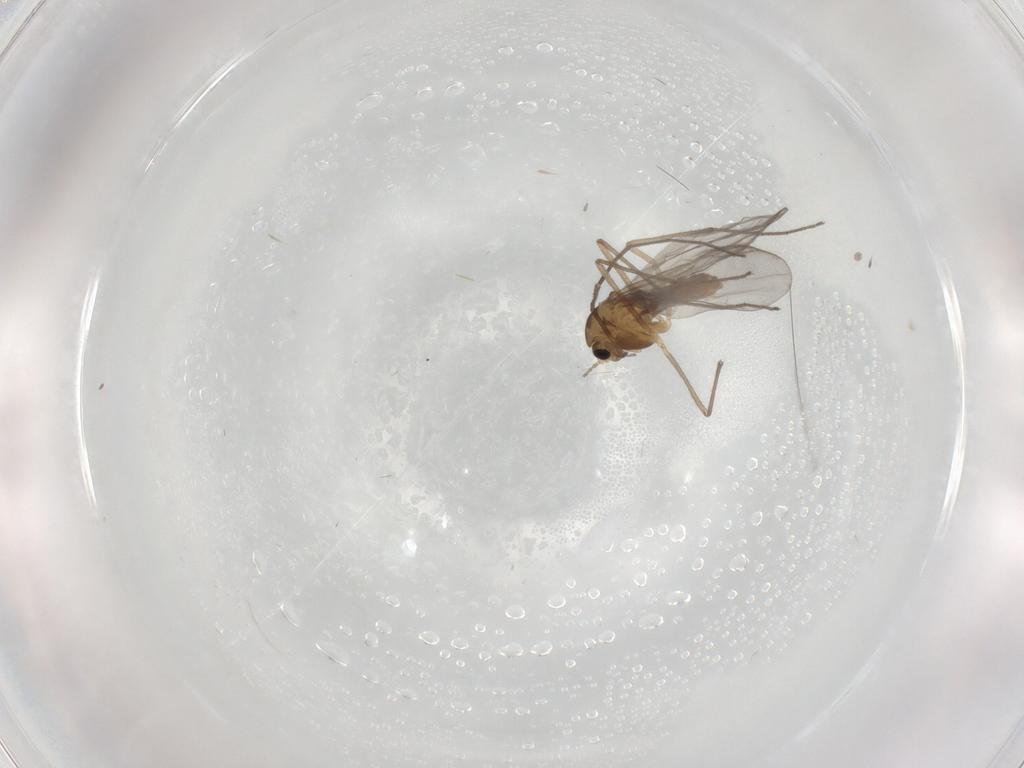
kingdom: Animalia
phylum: Arthropoda
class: Insecta
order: Diptera
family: Chironomidae
